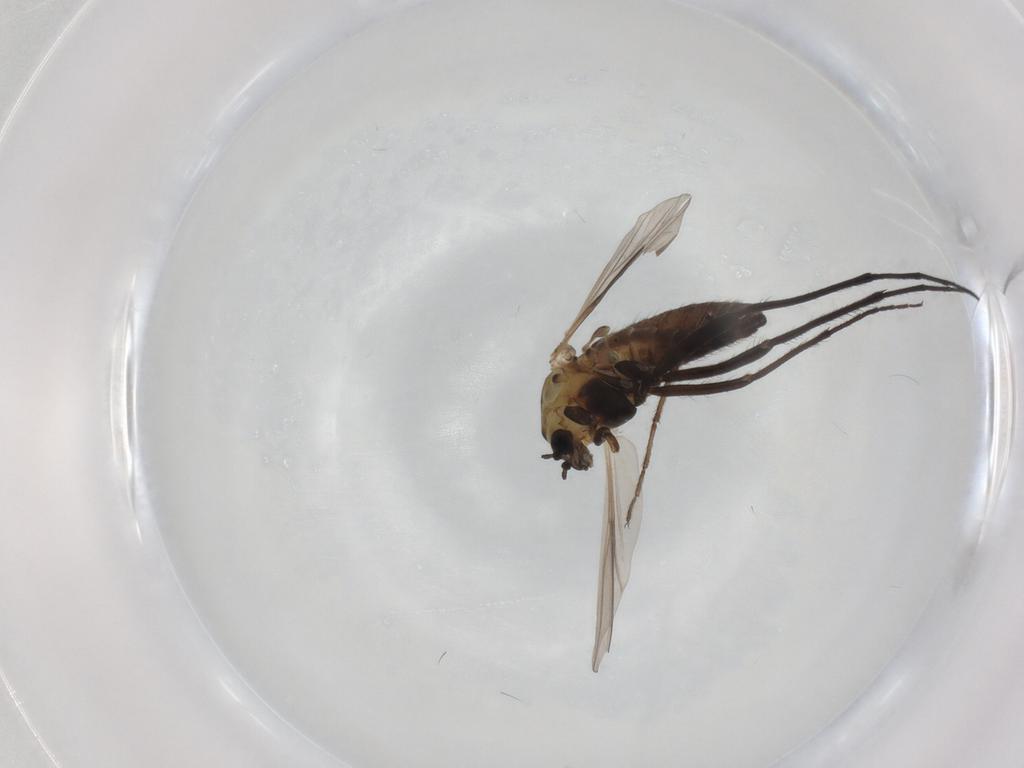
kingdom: Animalia
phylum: Arthropoda
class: Insecta
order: Diptera
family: Chironomidae
